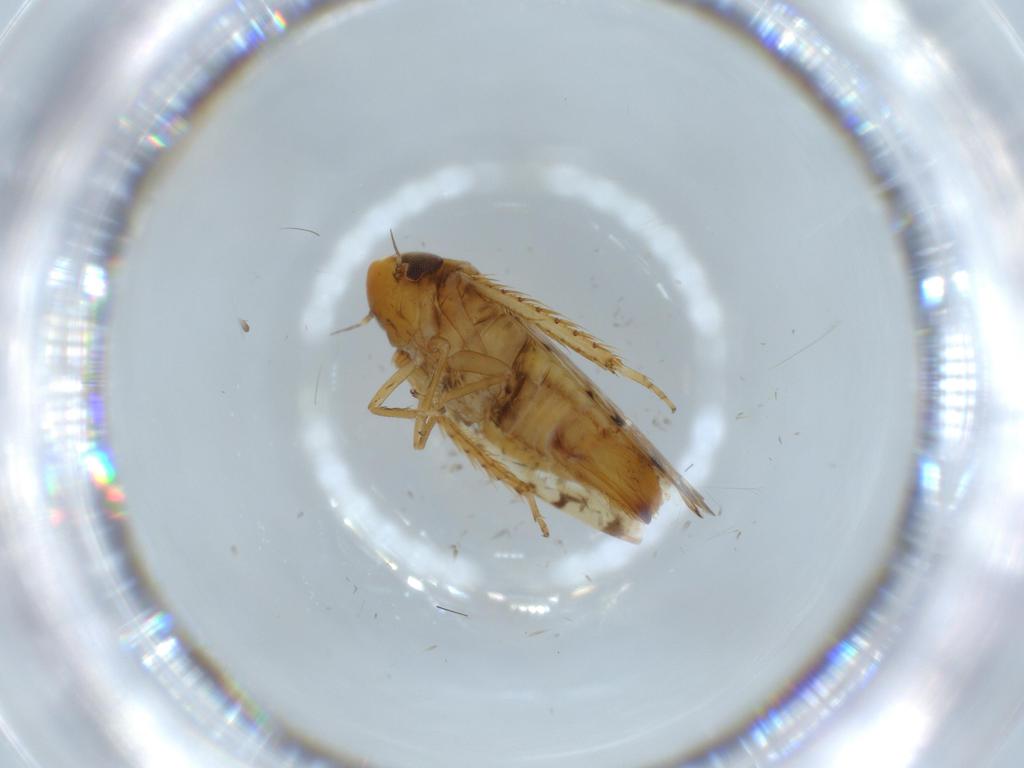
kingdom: Animalia
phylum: Arthropoda
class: Insecta
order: Hemiptera
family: Cicadellidae
